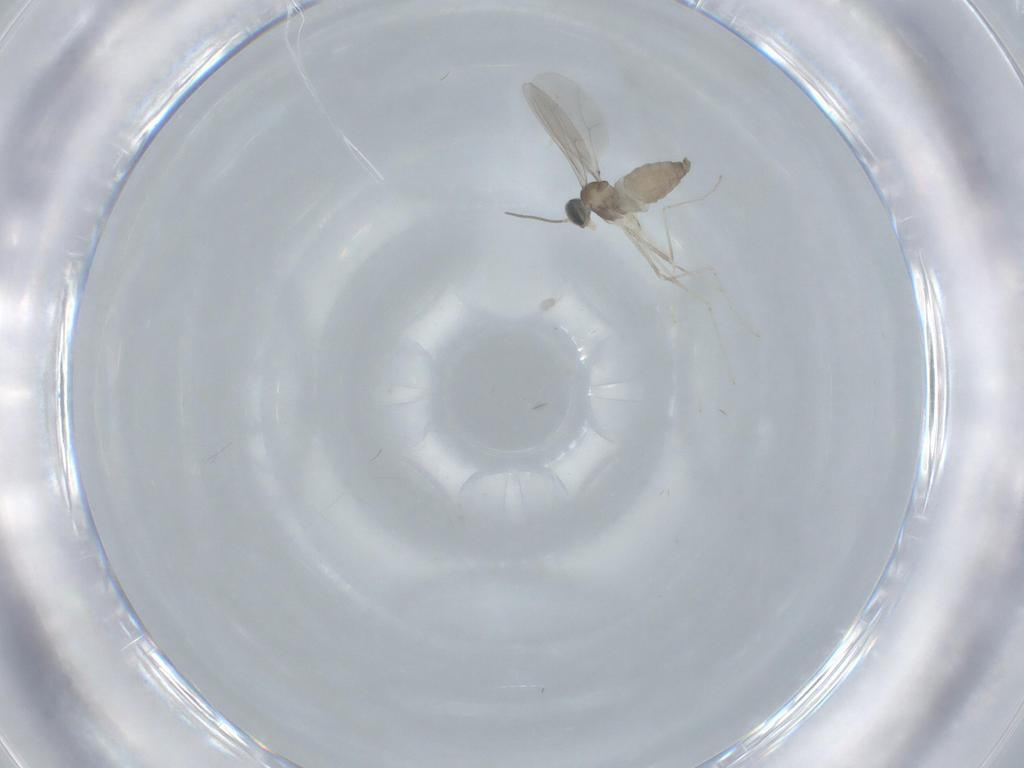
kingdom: Animalia
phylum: Arthropoda
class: Insecta
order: Diptera
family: Cecidomyiidae
